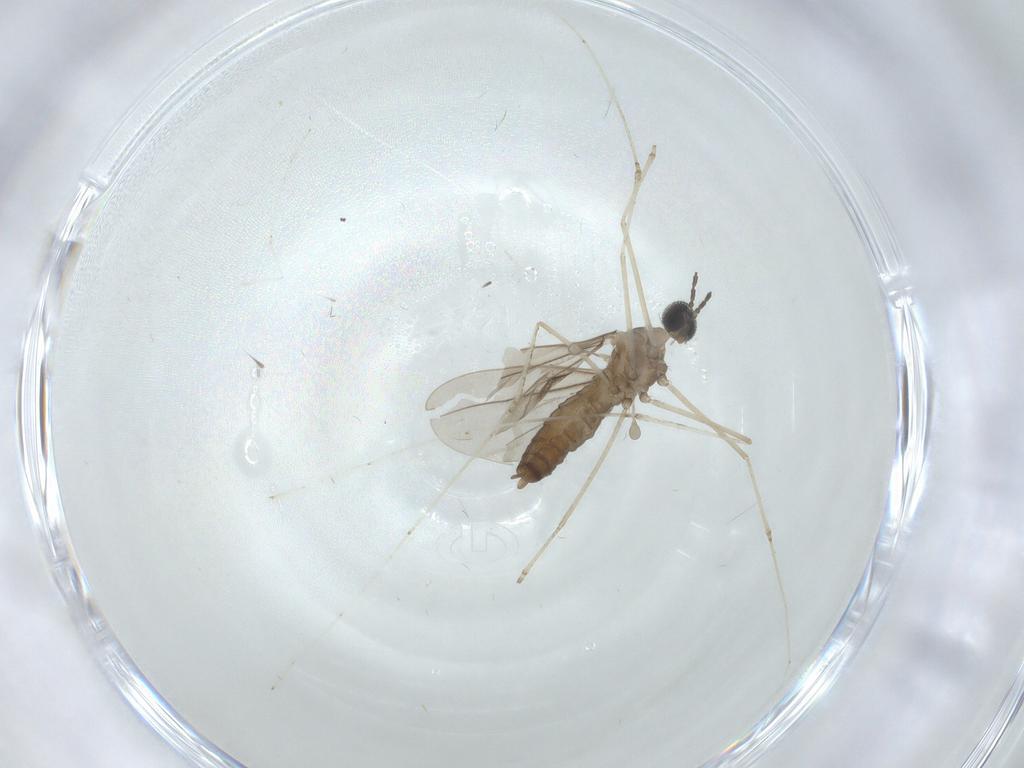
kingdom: Animalia
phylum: Arthropoda
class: Insecta
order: Diptera
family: Cecidomyiidae
